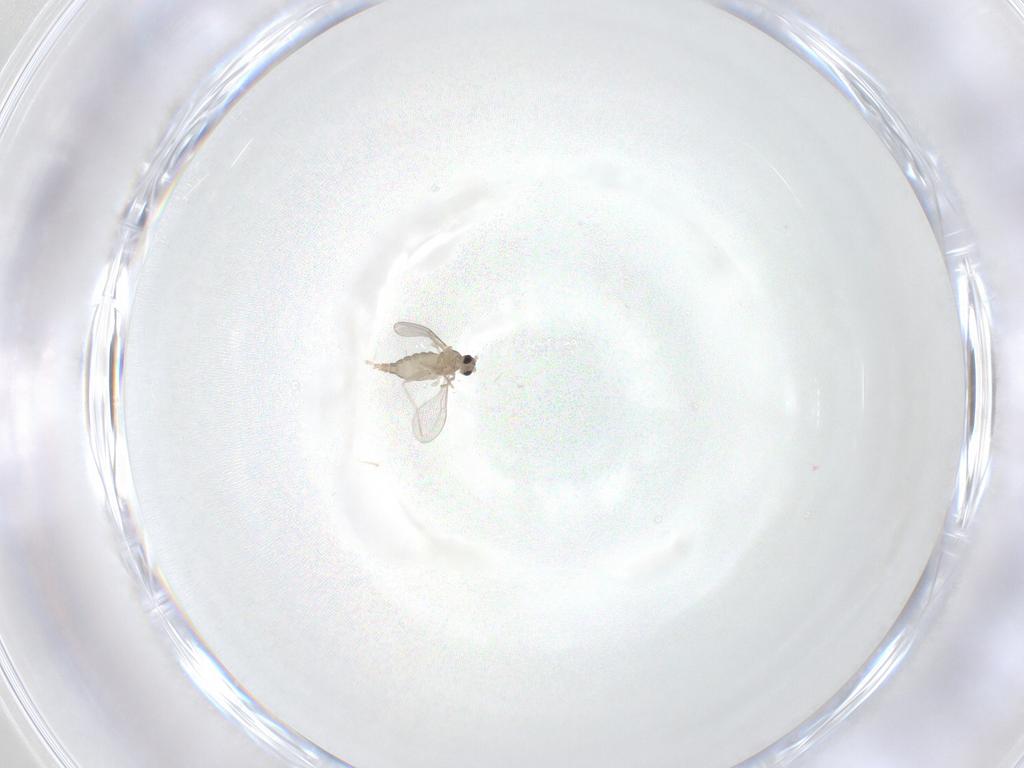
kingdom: Animalia
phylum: Arthropoda
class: Insecta
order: Diptera
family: Cecidomyiidae
